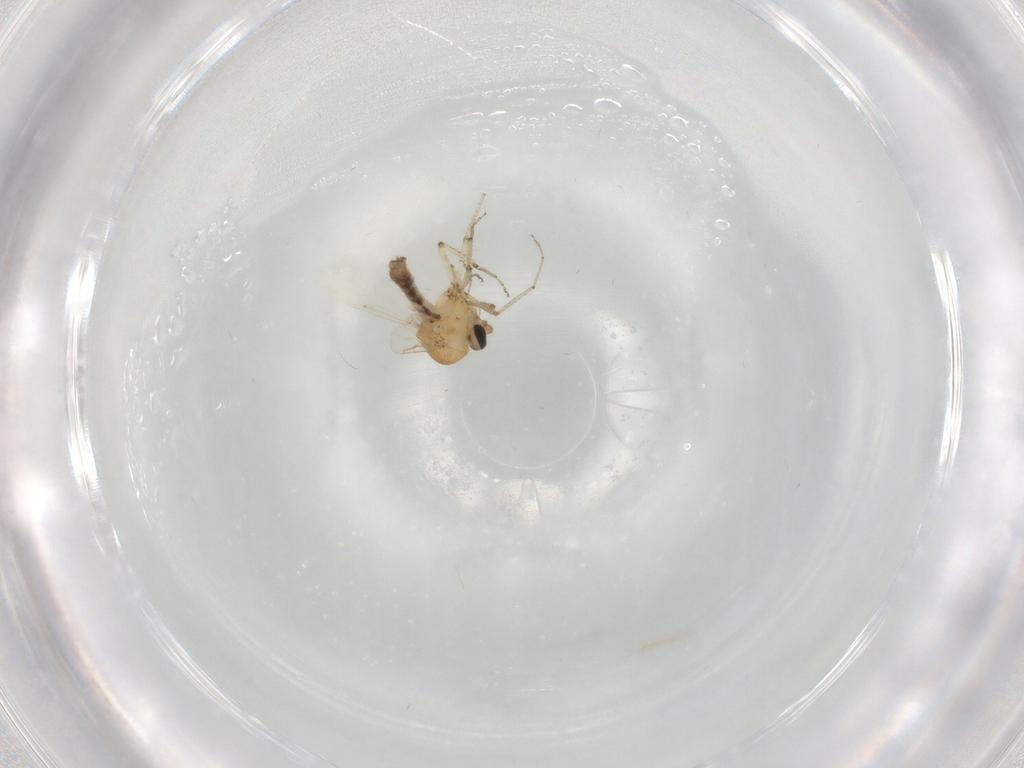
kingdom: Animalia
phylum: Arthropoda
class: Insecta
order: Diptera
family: Ceratopogonidae
